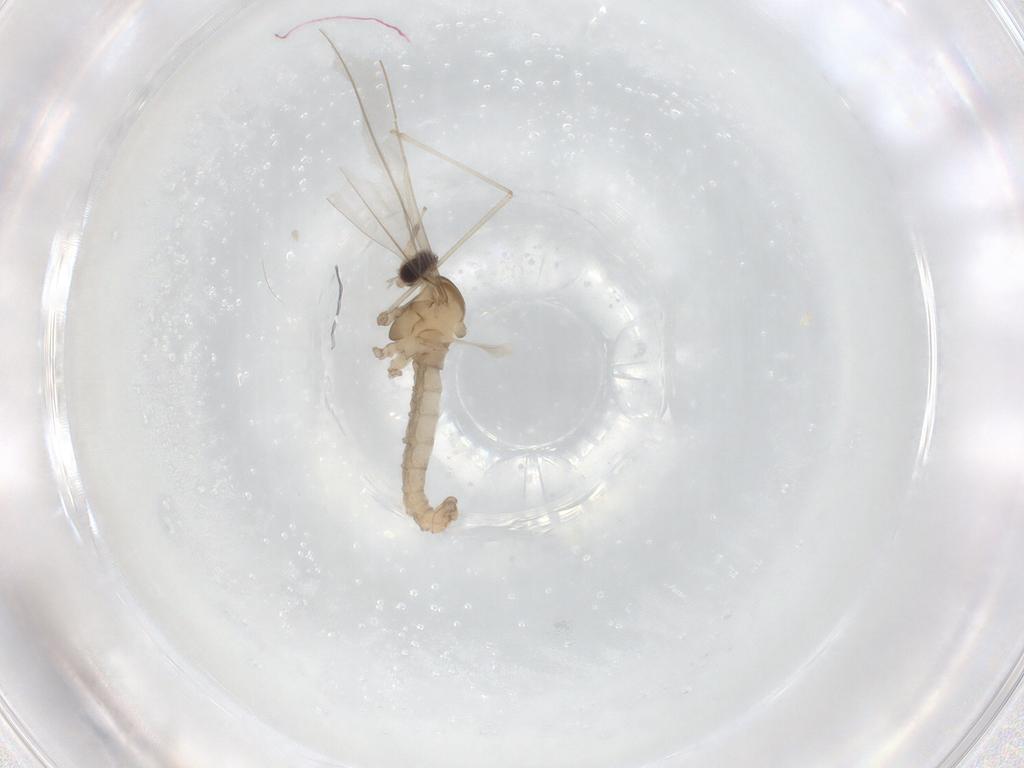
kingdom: Animalia
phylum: Arthropoda
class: Insecta
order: Diptera
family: Cecidomyiidae
